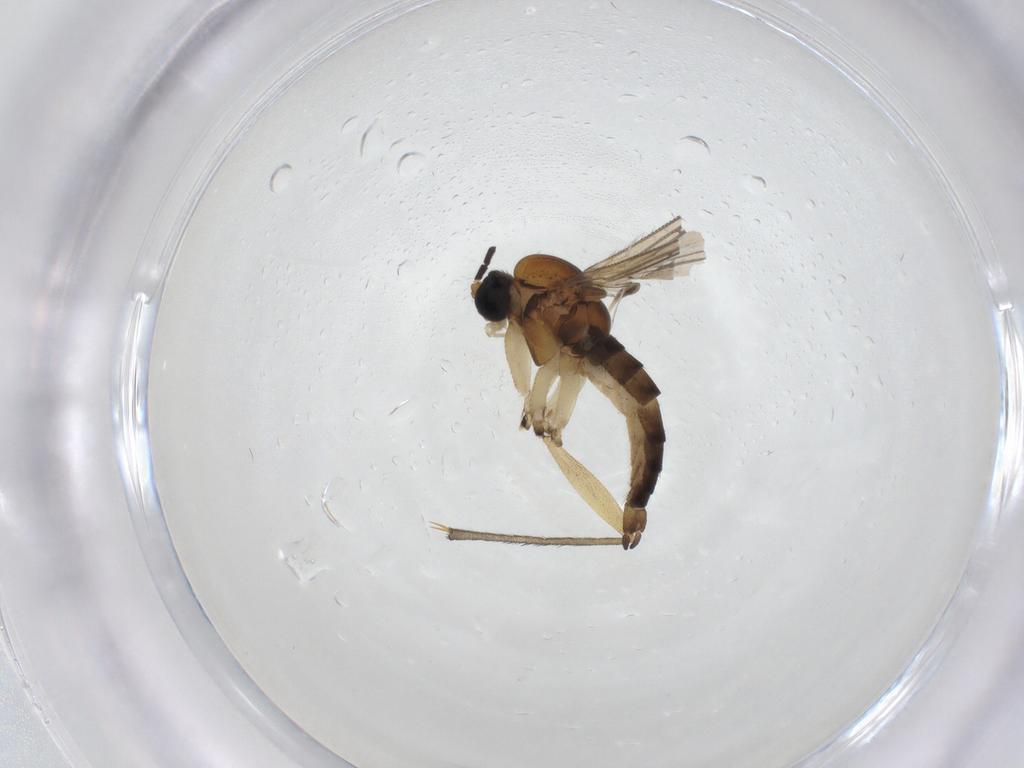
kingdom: Animalia
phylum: Arthropoda
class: Insecta
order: Diptera
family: Sciaridae
